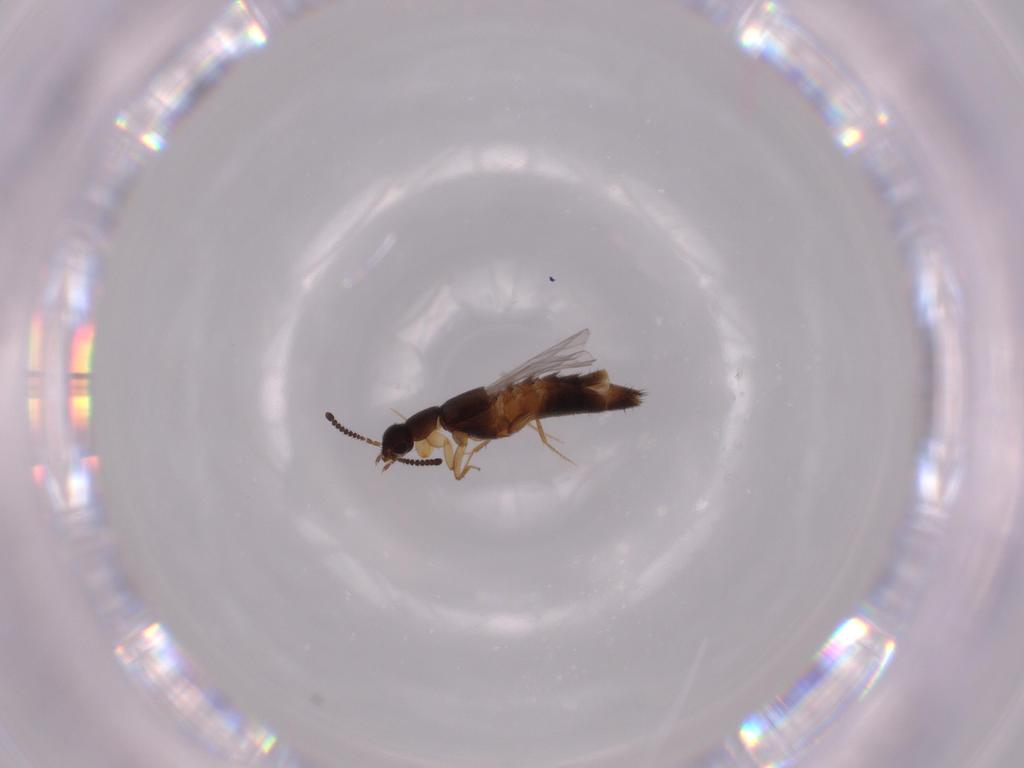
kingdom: Animalia
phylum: Arthropoda
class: Insecta
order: Coleoptera
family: Staphylinidae
